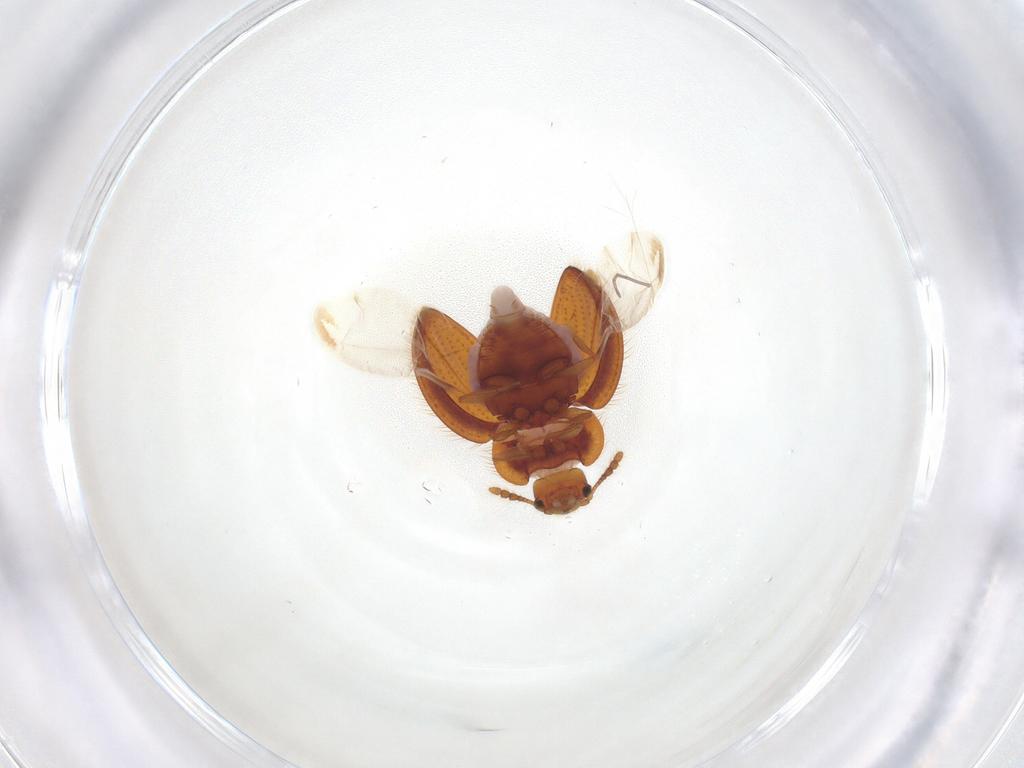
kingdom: Animalia
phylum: Arthropoda
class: Insecta
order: Coleoptera
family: Anamorphidae
